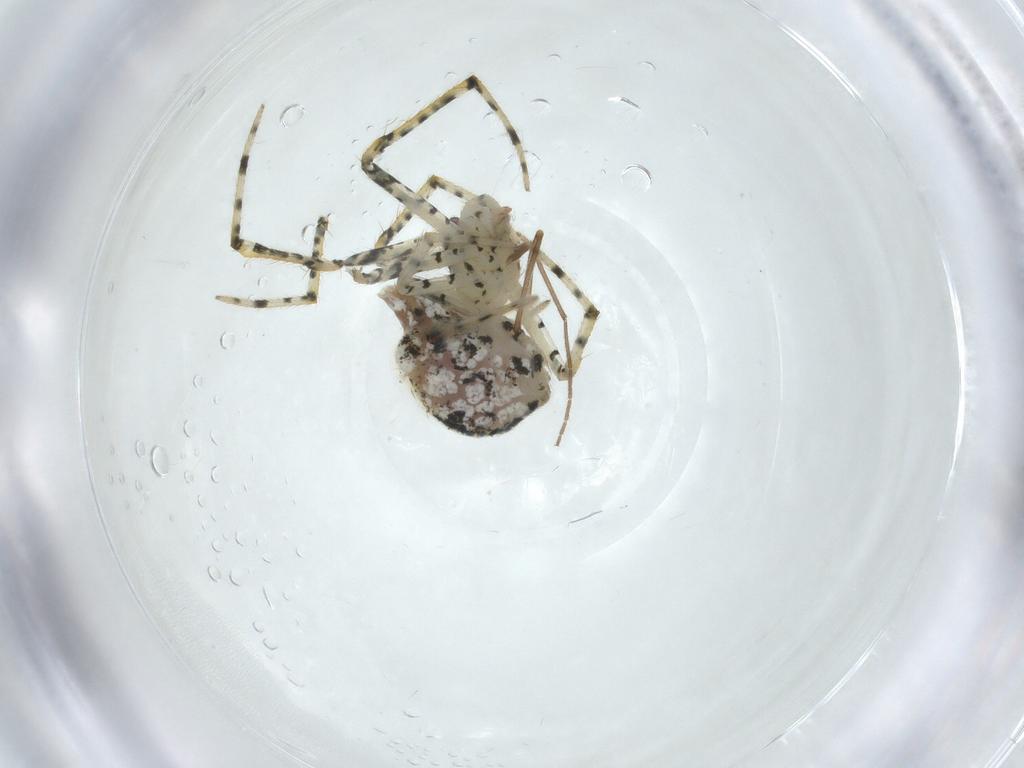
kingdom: Animalia
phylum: Arthropoda
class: Arachnida
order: Araneae
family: Theridiidae
